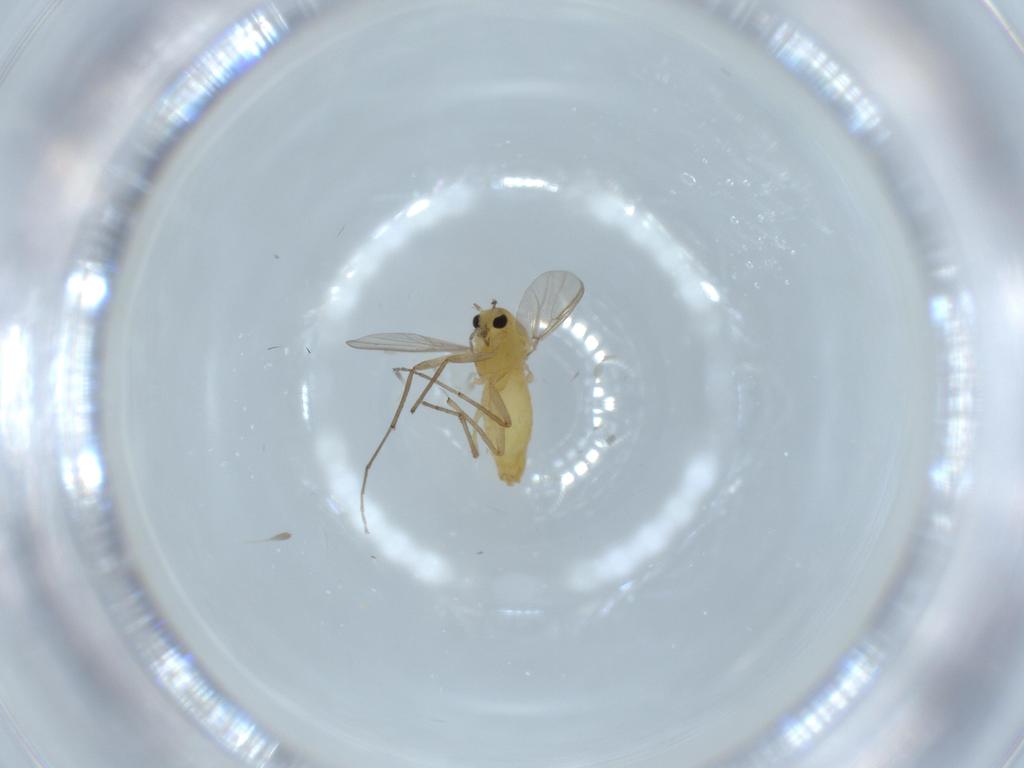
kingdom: Animalia
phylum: Arthropoda
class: Insecta
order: Diptera
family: Chironomidae
